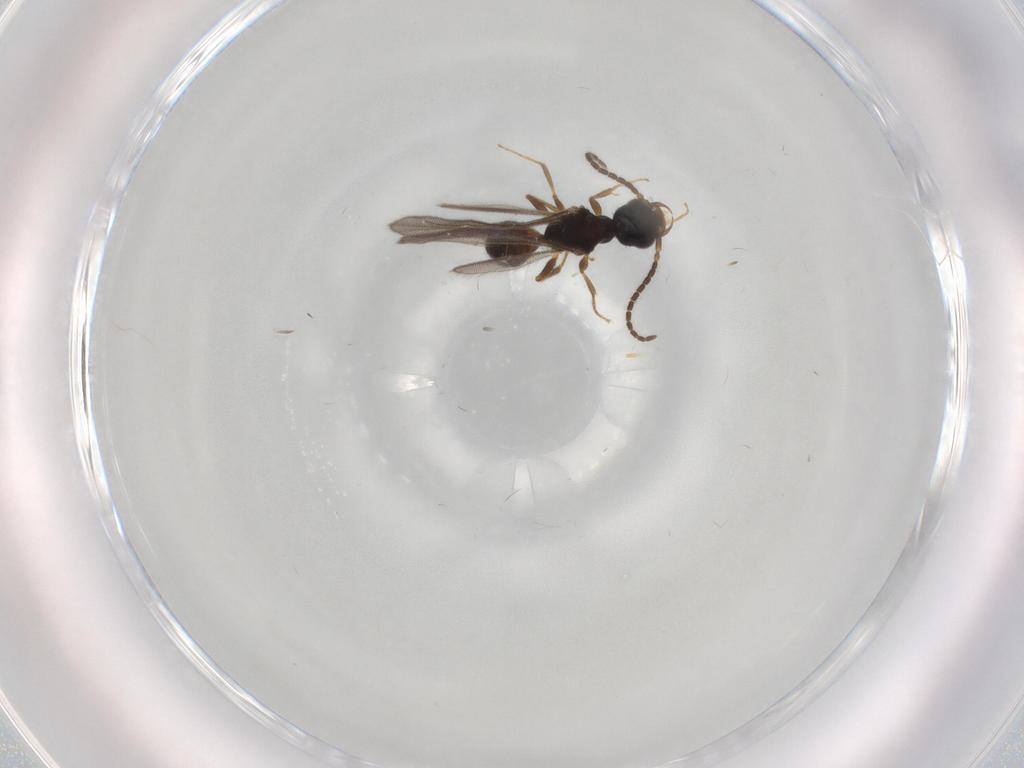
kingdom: Animalia
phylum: Arthropoda
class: Insecta
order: Hymenoptera
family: Bethylidae
